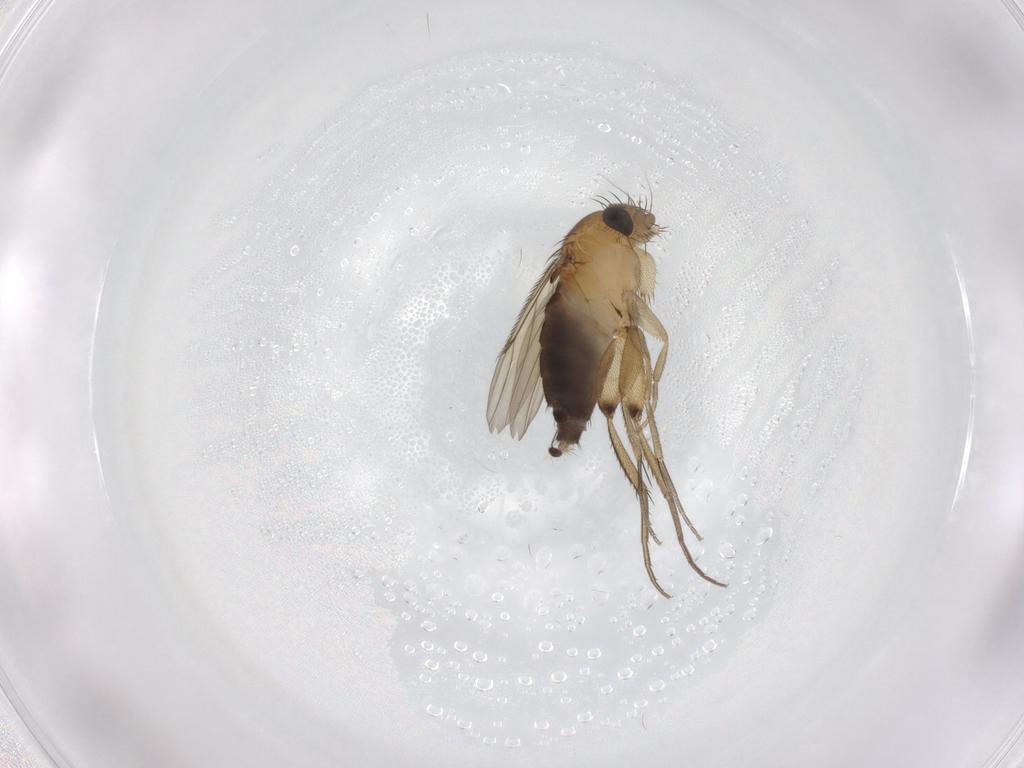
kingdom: Animalia
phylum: Arthropoda
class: Insecta
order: Diptera
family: Phoridae
